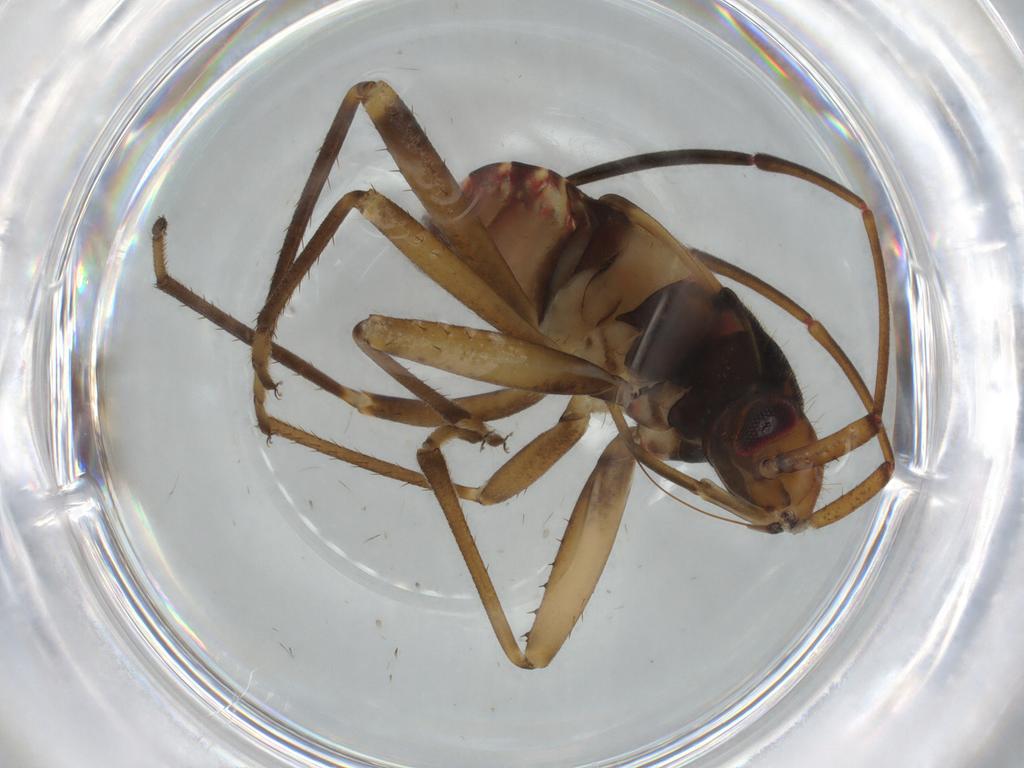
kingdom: Animalia
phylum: Arthropoda
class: Insecta
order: Hemiptera
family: Rhyparochromidae
